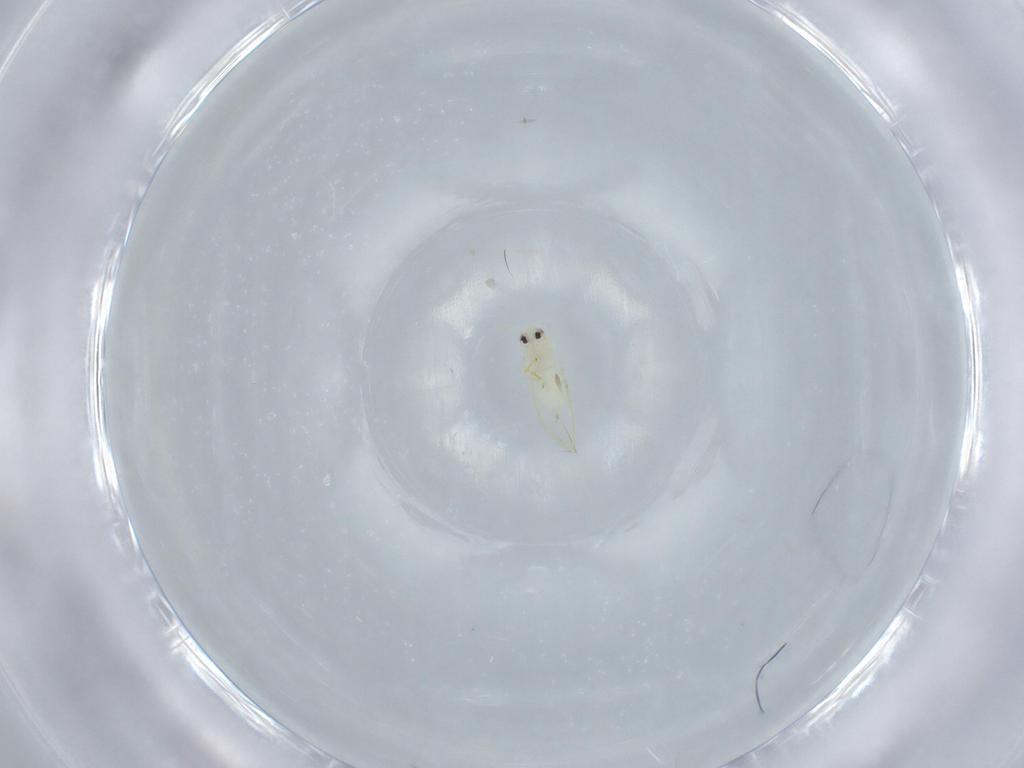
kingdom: Animalia
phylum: Arthropoda
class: Insecta
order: Hemiptera
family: Aleyrodidae
